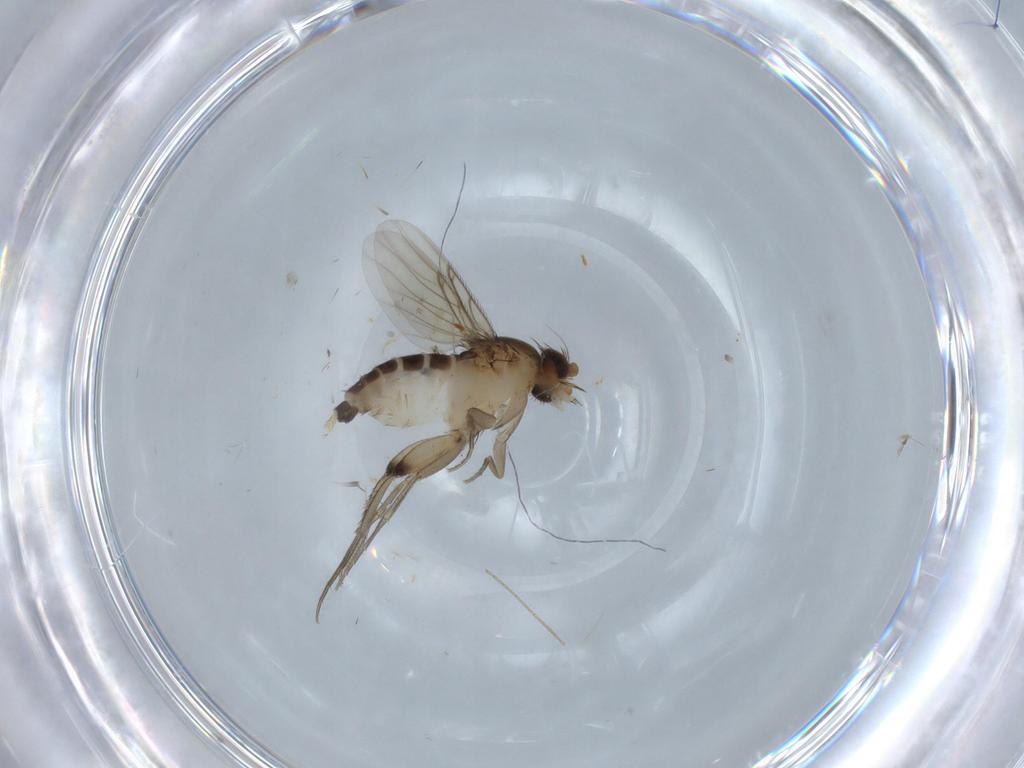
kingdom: Animalia
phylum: Arthropoda
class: Insecta
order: Diptera
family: Phoridae
